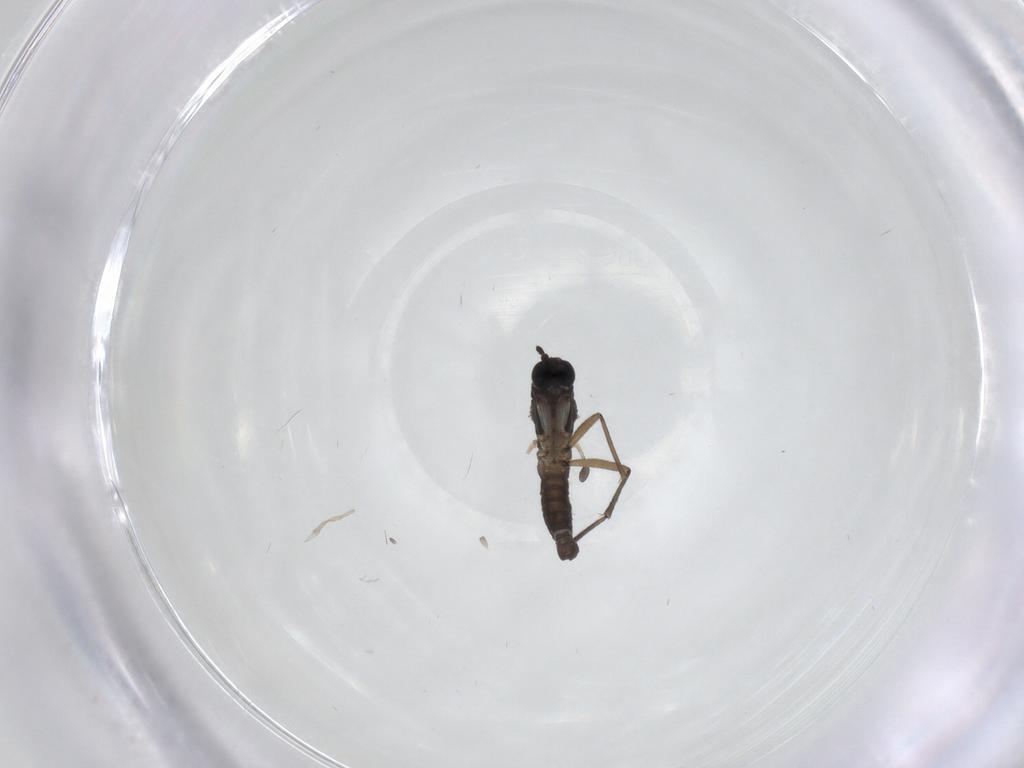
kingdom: Animalia
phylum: Arthropoda
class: Insecta
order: Diptera
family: Sciaridae
